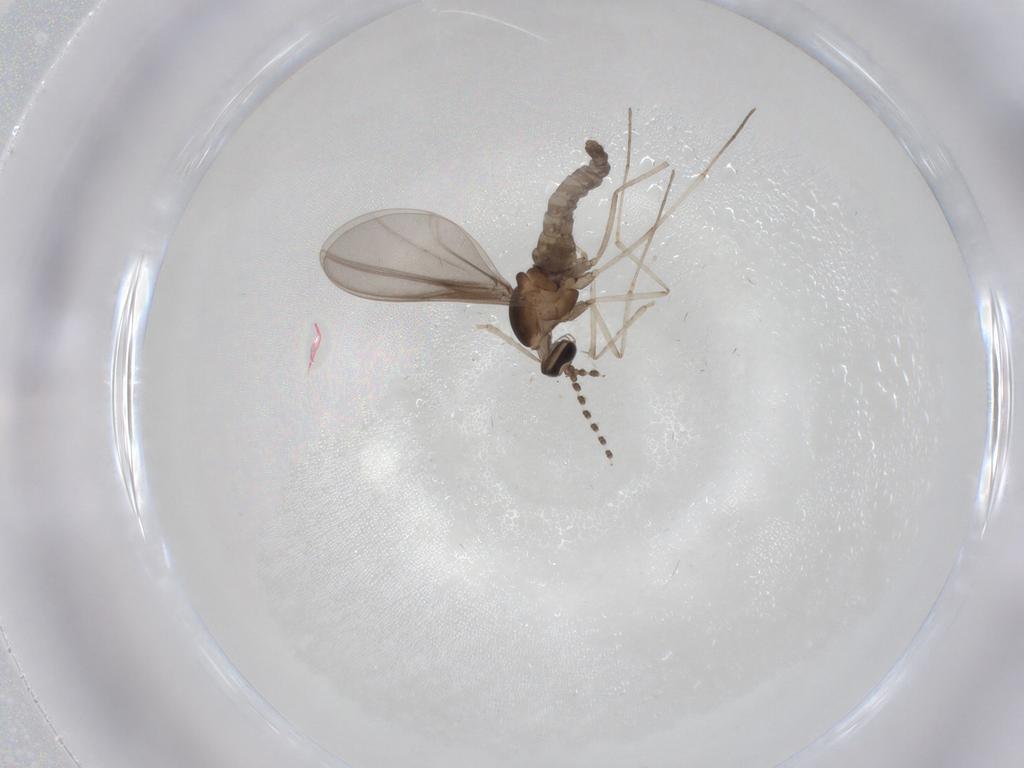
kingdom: Animalia
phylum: Arthropoda
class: Insecta
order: Diptera
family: Cecidomyiidae
